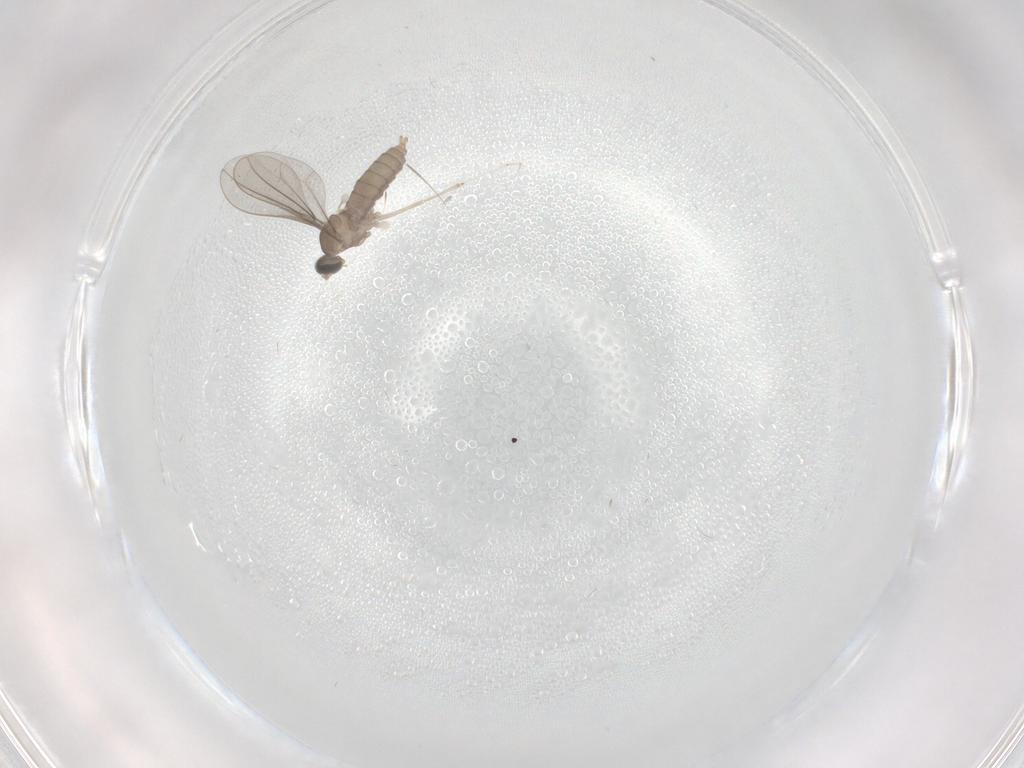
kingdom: Animalia
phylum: Arthropoda
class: Insecta
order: Diptera
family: Limoniidae
